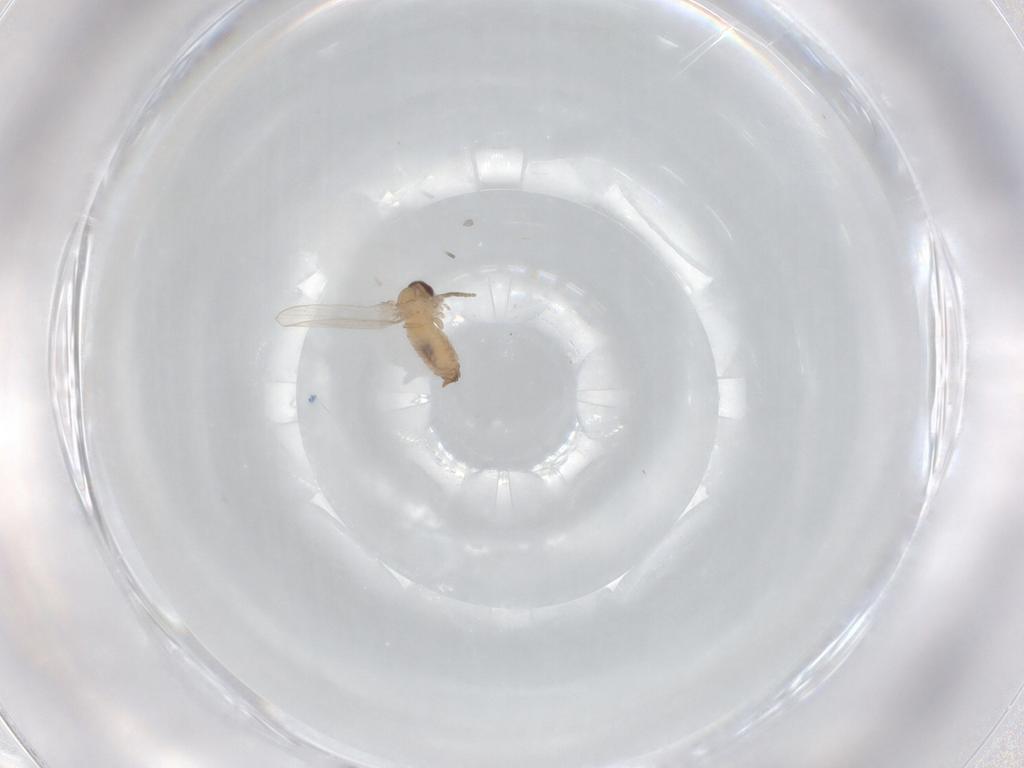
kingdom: Animalia
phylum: Arthropoda
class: Insecta
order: Diptera
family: Psychodidae
